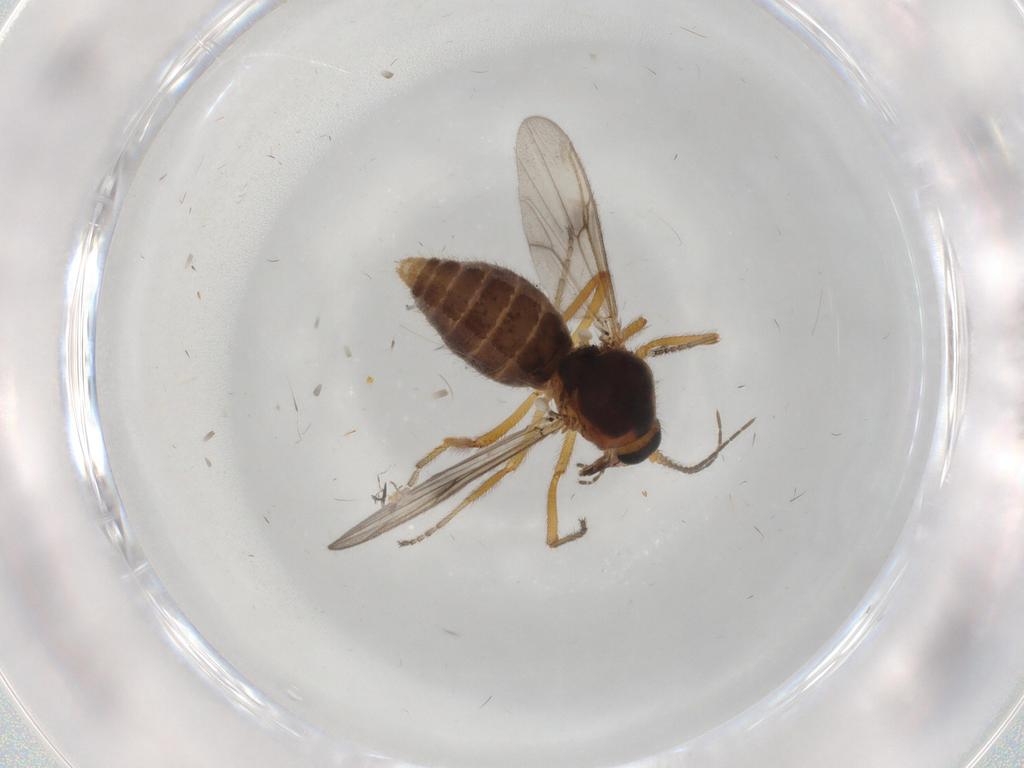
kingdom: Animalia
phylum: Arthropoda
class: Insecta
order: Diptera
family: Ceratopogonidae
